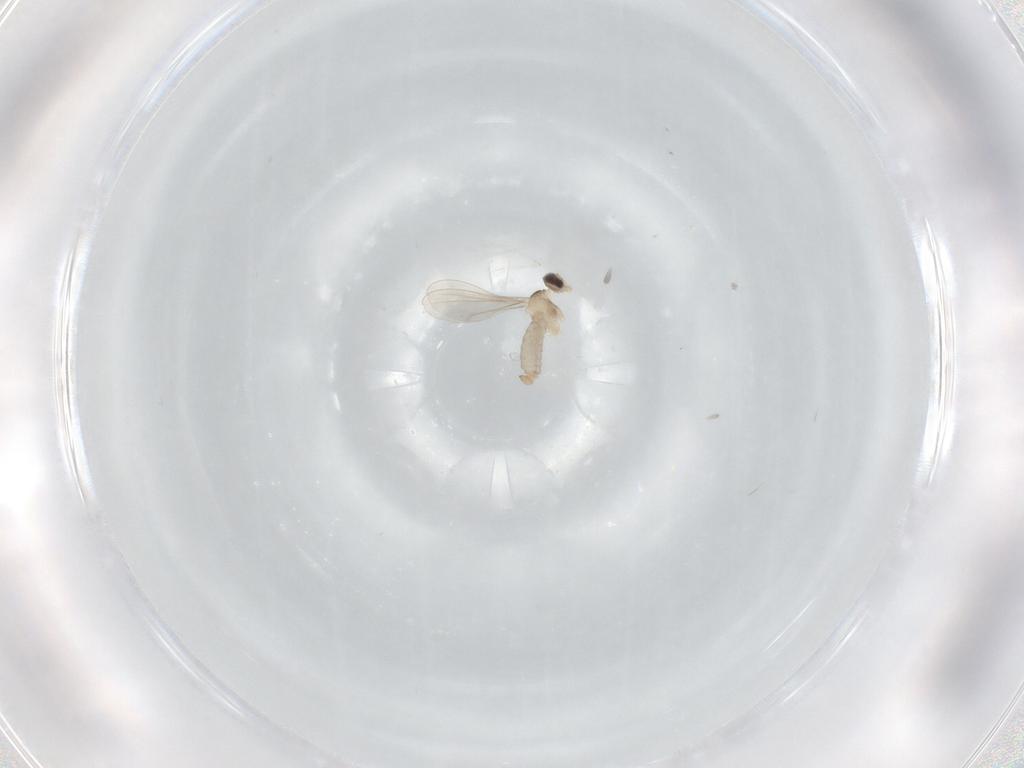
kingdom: Animalia
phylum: Arthropoda
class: Insecta
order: Diptera
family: Cecidomyiidae
